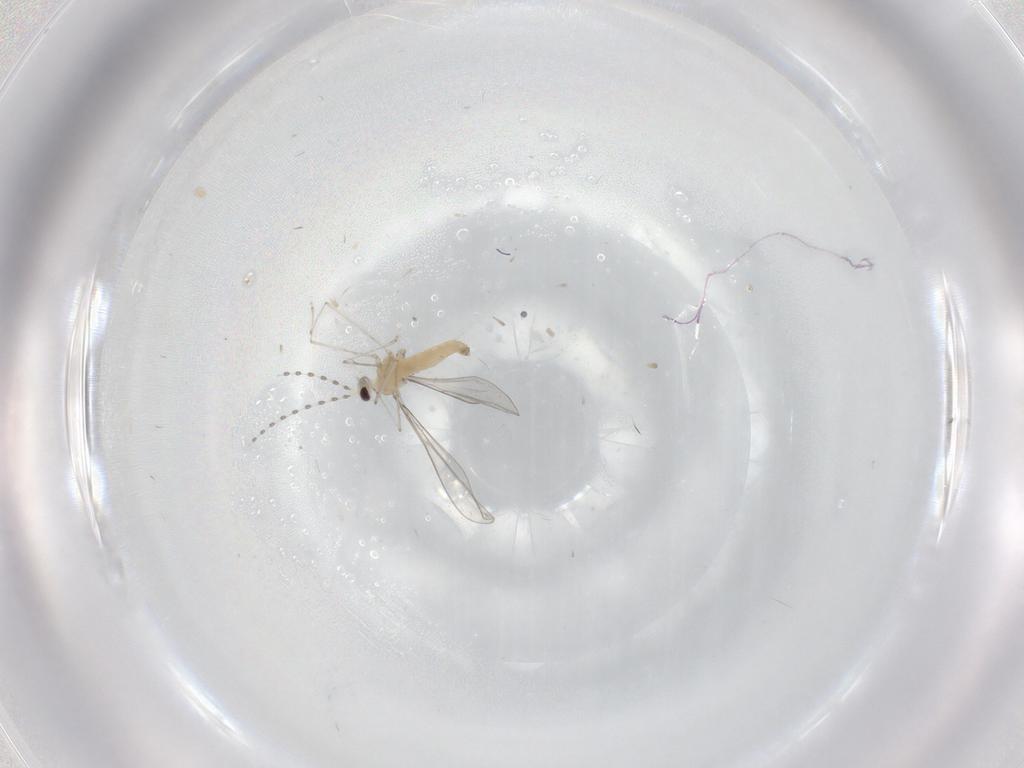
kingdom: Animalia
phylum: Arthropoda
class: Insecta
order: Diptera
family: Cecidomyiidae
